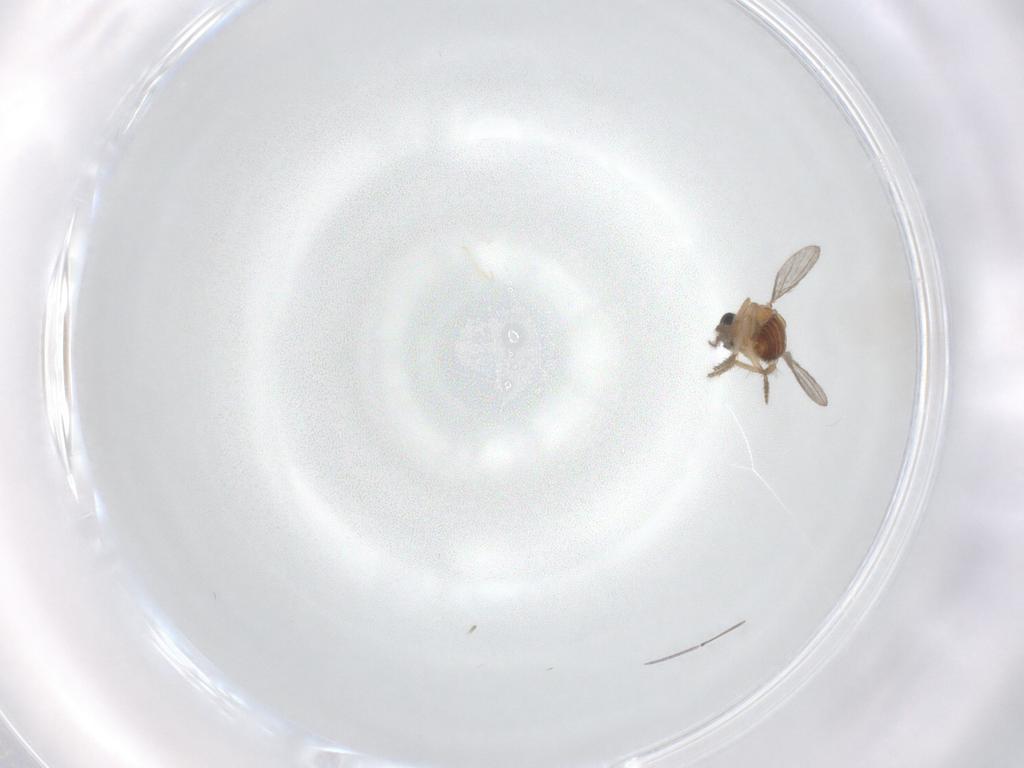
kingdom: Animalia
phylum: Arthropoda
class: Insecta
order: Diptera
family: Ceratopogonidae
